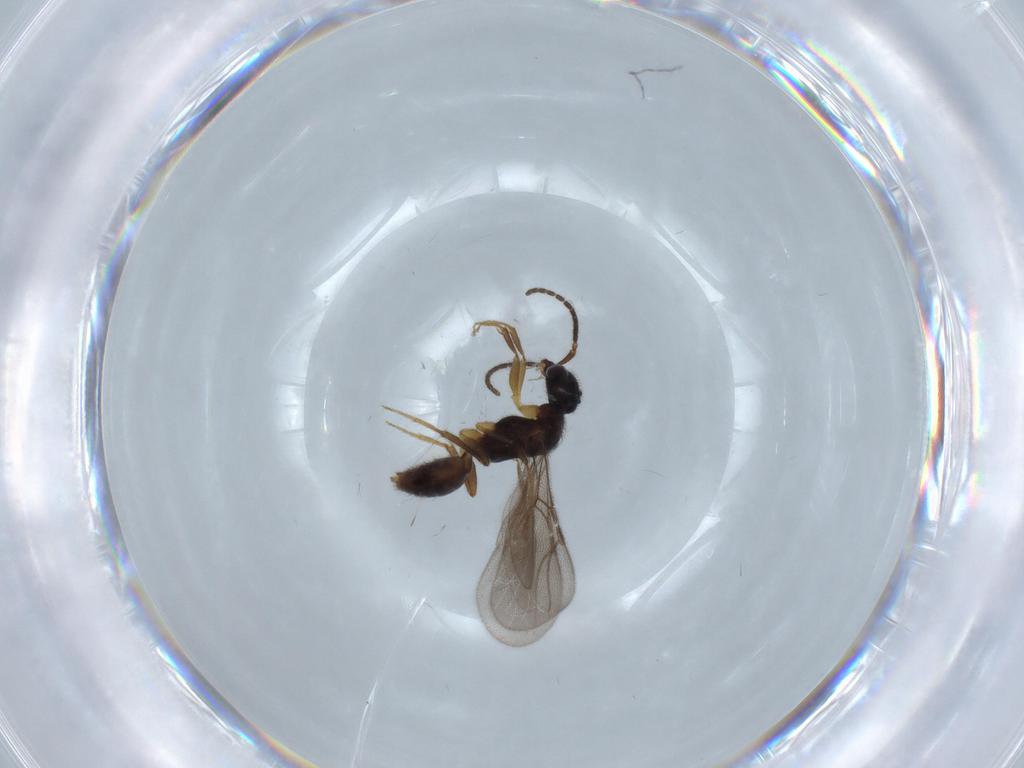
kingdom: Animalia
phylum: Arthropoda
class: Insecta
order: Hymenoptera
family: Bethylidae
